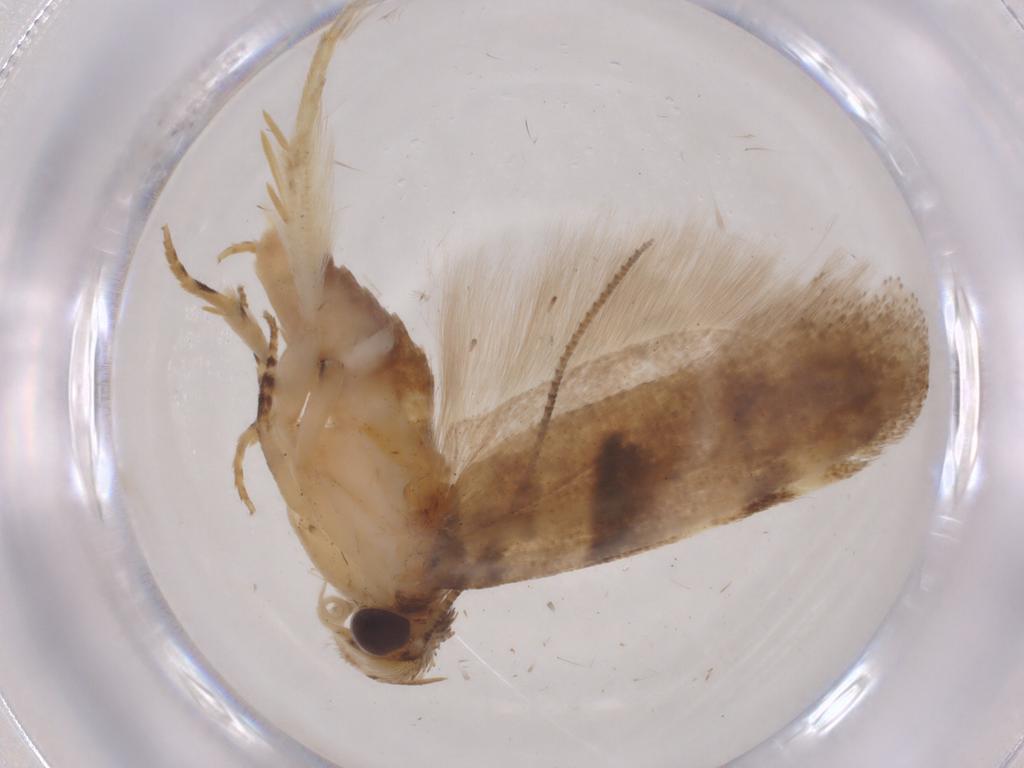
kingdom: Animalia
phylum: Arthropoda
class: Insecta
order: Lepidoptera
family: Gelechiidae
